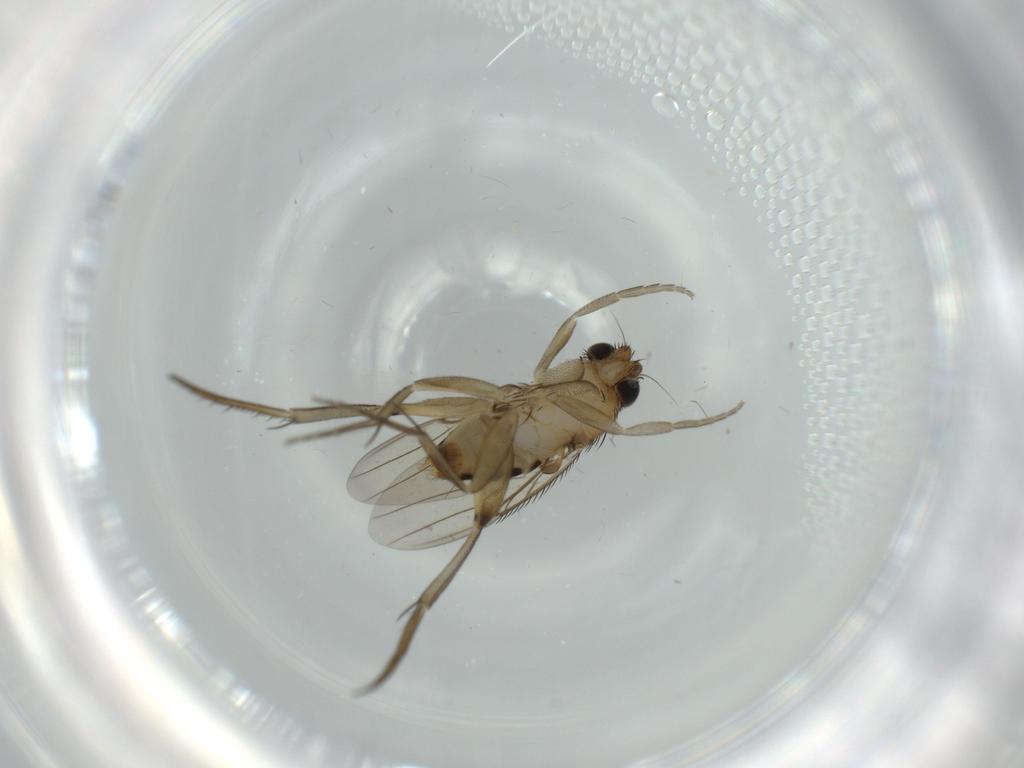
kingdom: Animalia
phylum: Arthropoda
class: Insecta
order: Diptera
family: Phoridae
